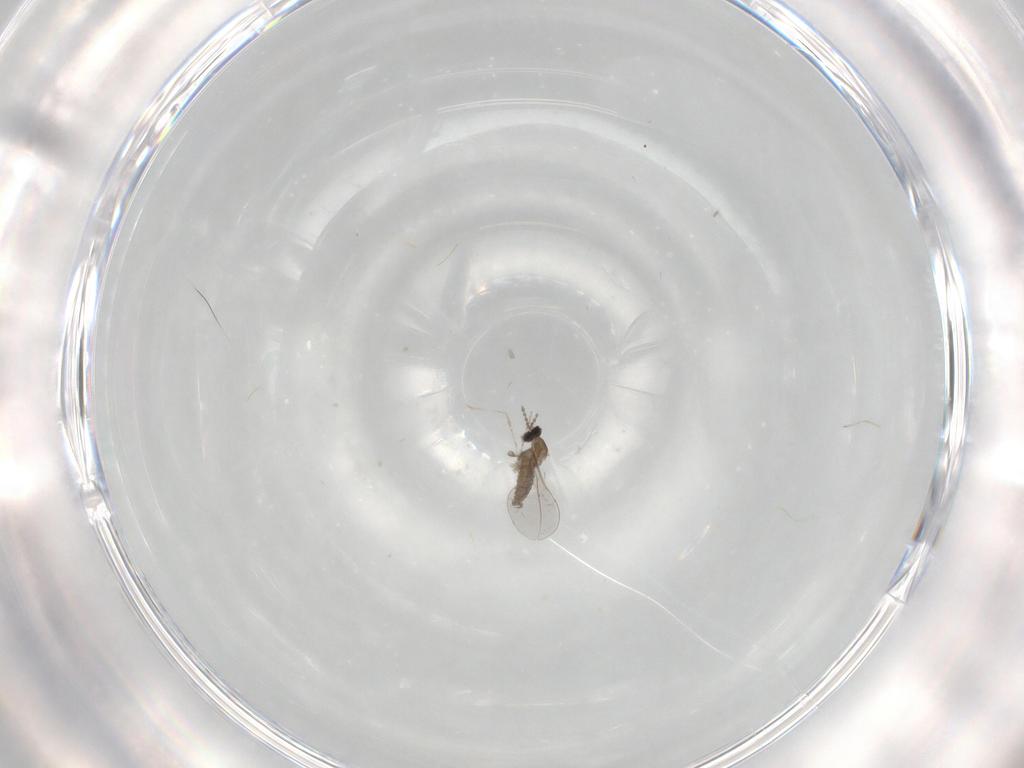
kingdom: Animalia
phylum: Arthropoda
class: Insecta
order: Diptera
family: Cecidomyiidae
